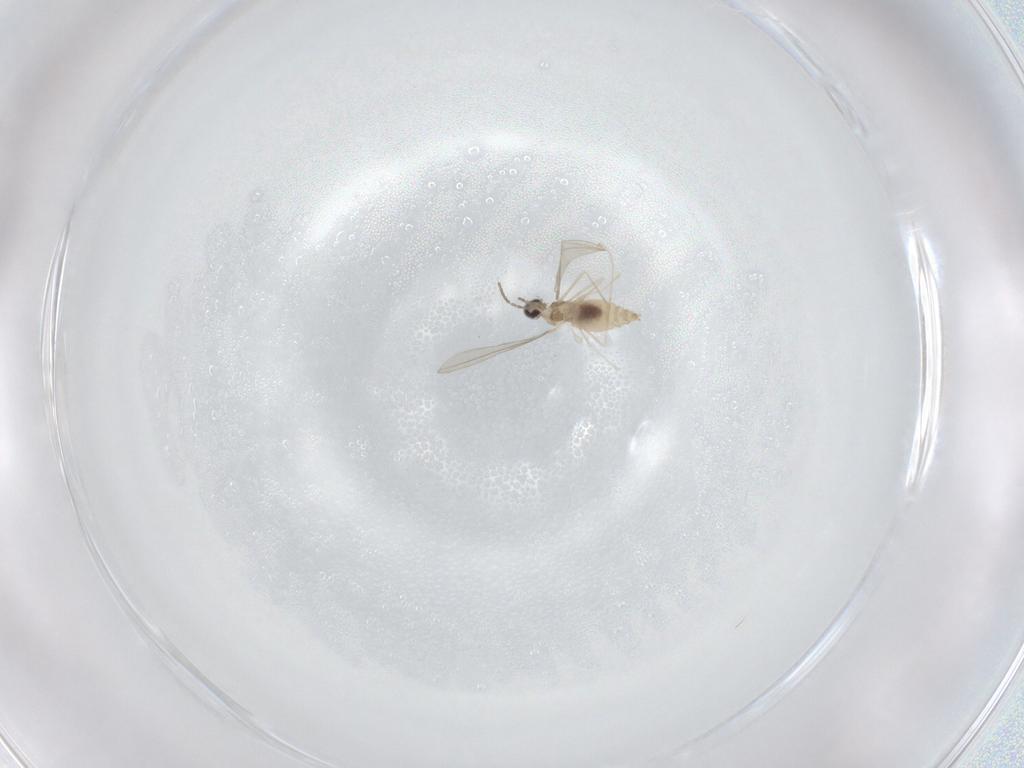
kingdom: Animalia
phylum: Arthropoda
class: Insecta
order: Diptera
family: Cecidomyiidae
